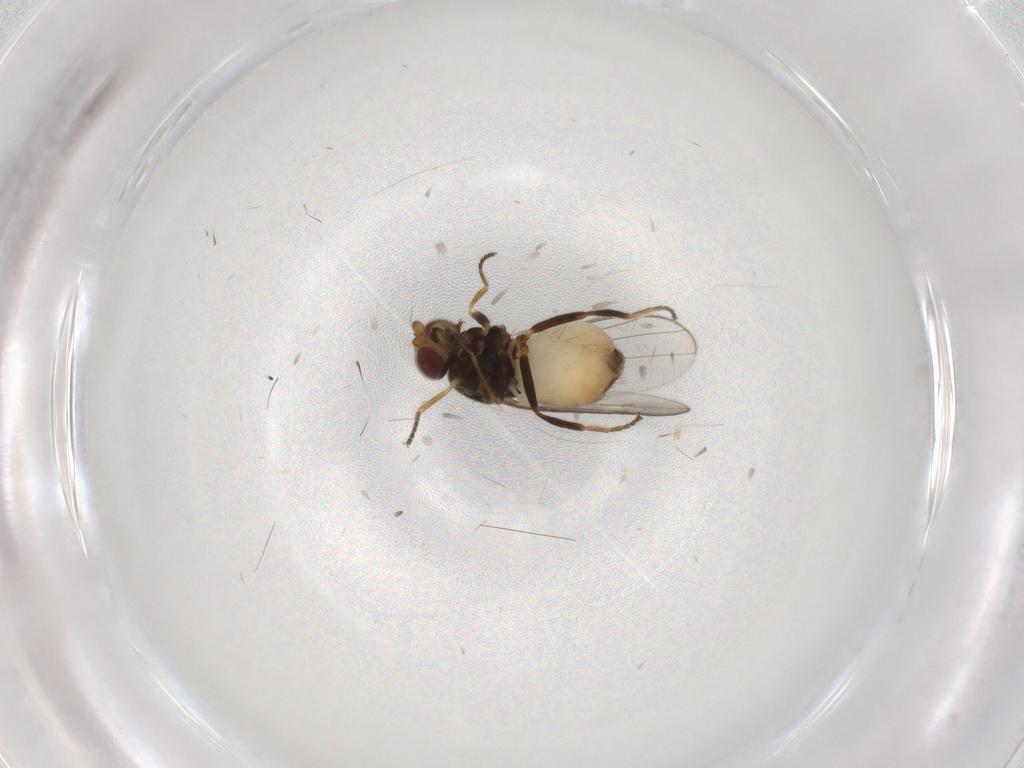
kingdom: Animalia
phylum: Arthropoda
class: Insecta
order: Diptera
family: Chloropidae
